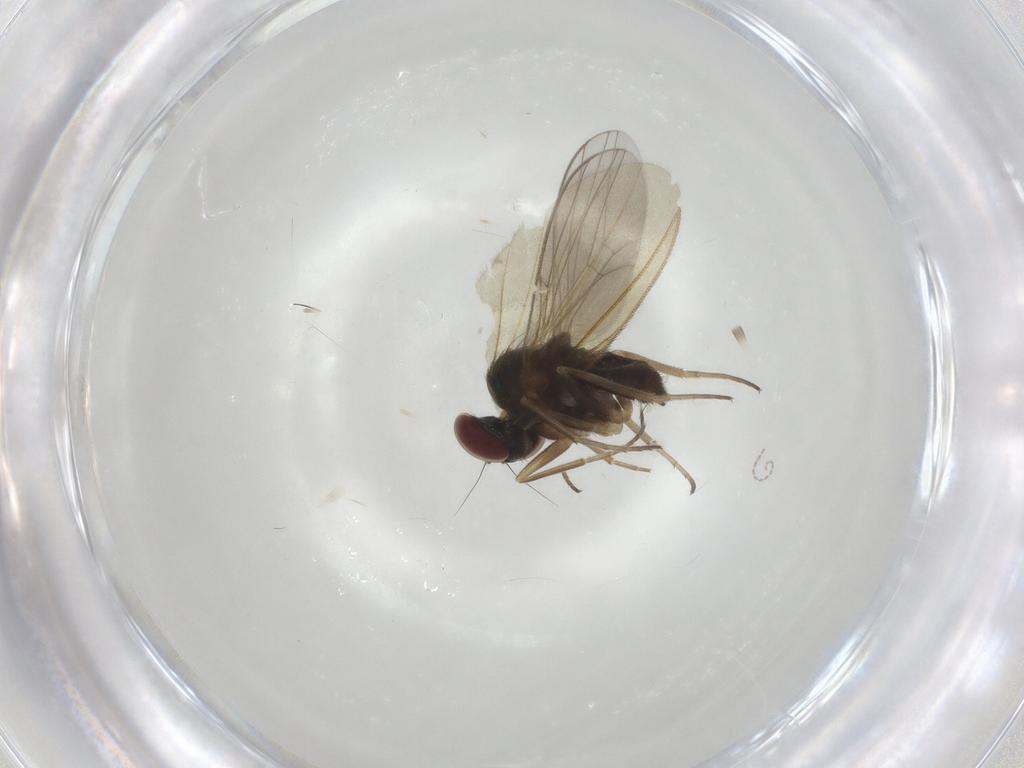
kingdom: Animalia
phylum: Arthropoda
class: Insecta
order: Diptera
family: Dolichopodidae
